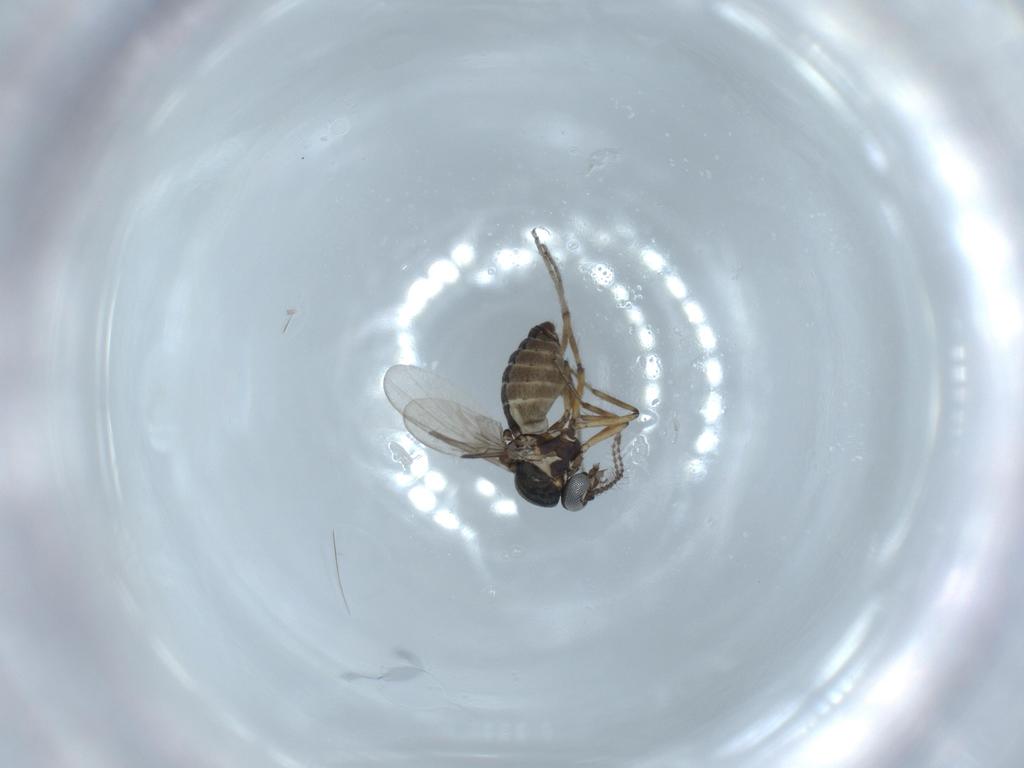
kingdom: Animalia
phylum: Arthropoda
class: Insecta
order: Diptera
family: Ceratopogonidae
